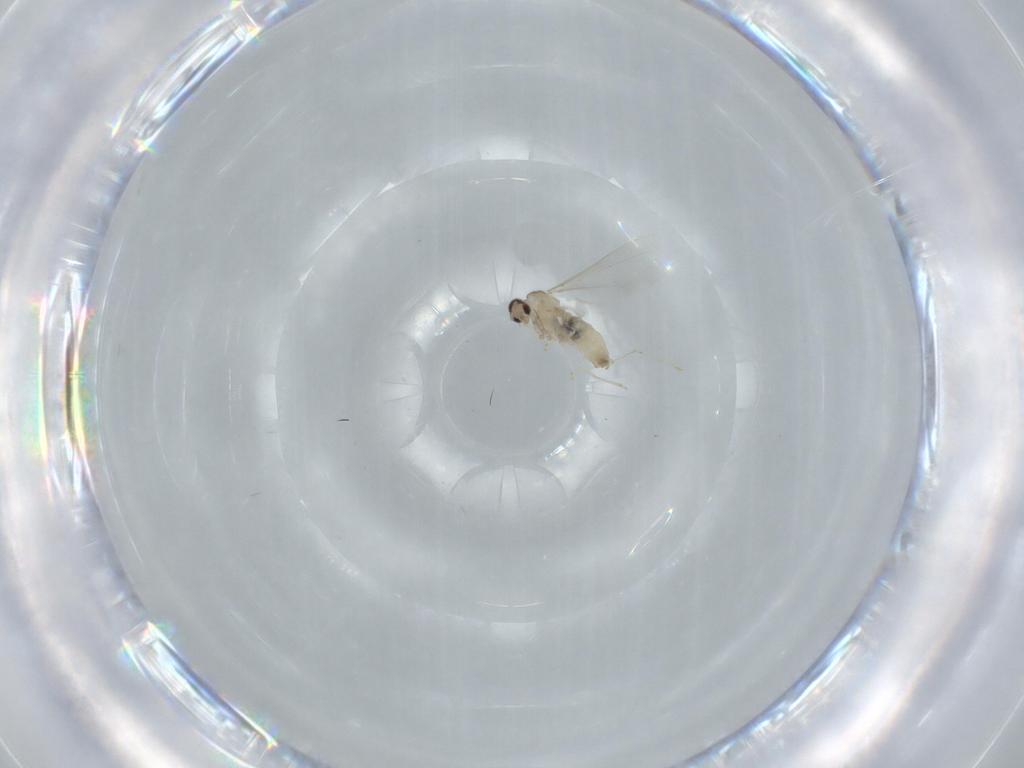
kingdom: Animalia
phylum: Arthropoda
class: Insecta
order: Diptera
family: Cecidomyiidae
